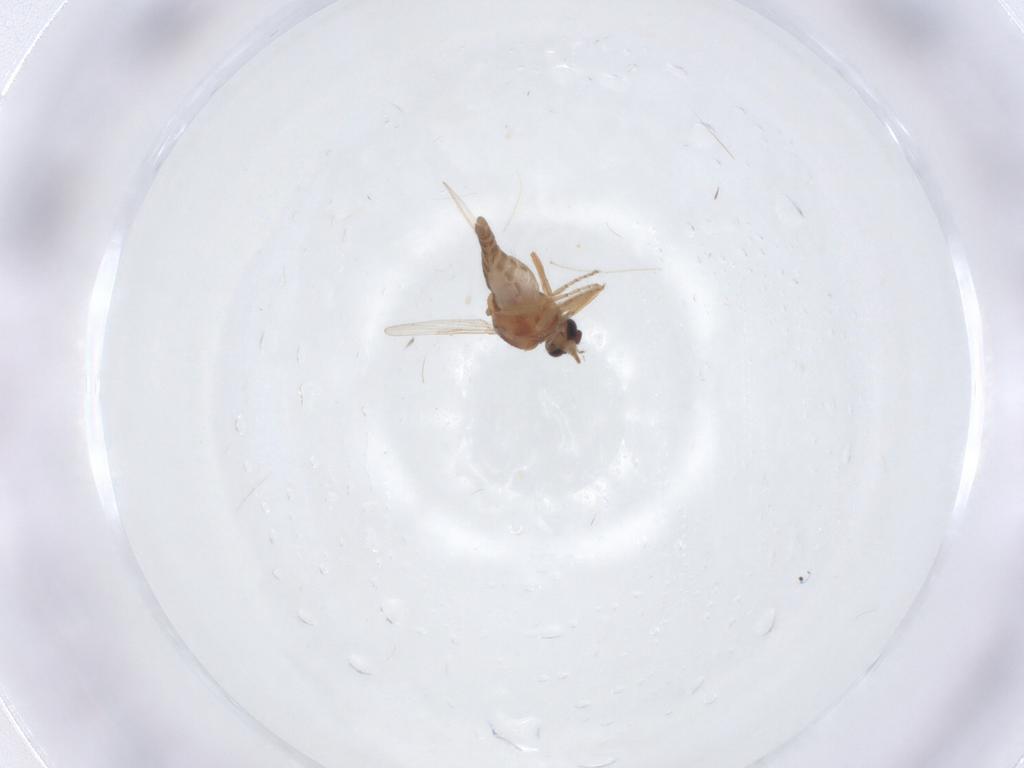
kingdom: Animalia
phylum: Arthropoda
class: Insecta
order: Diptera
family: Ceratopogonidae
